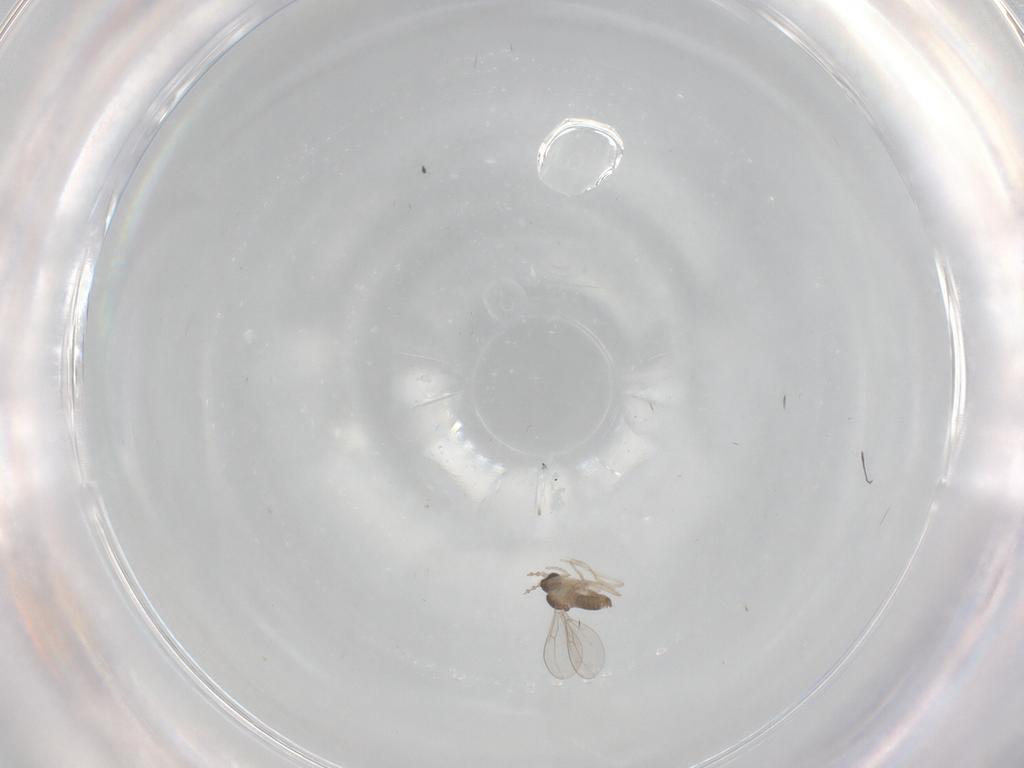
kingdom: Animalia
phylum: Arthropoda
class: Insecta
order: Diptera
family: Cecidomyiidae
